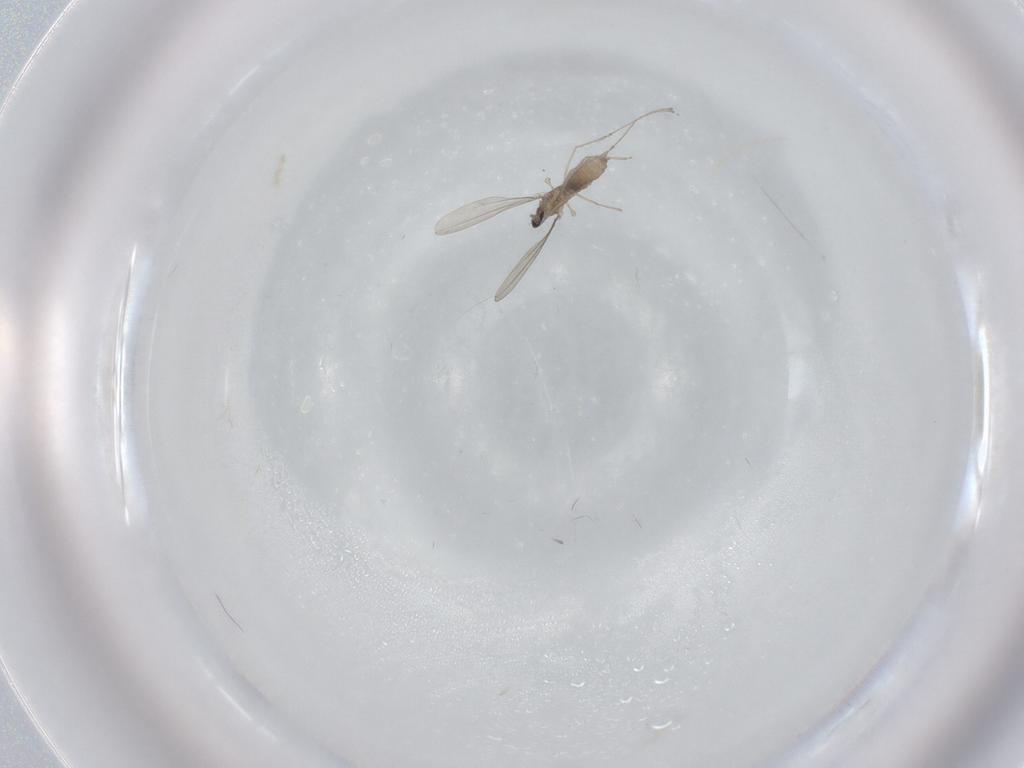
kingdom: Animalia
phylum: Arthropoda
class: Insecta
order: Diptera
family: Cecidomyiidae
